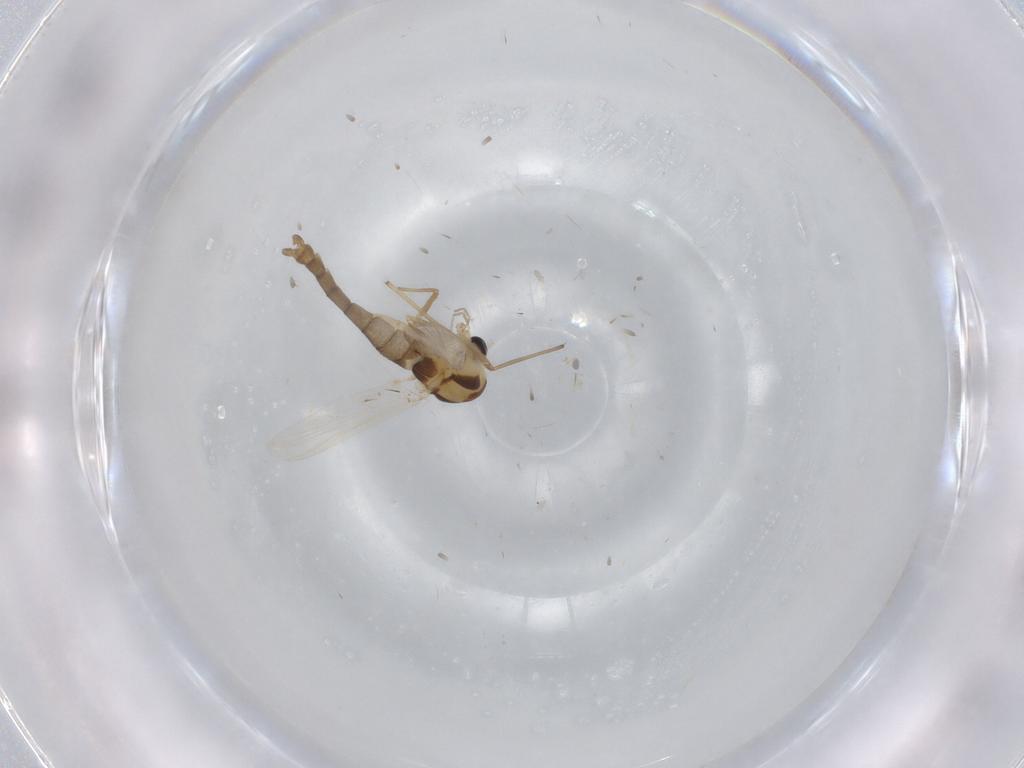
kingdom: Animalia
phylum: Arthropoda
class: Insecta
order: Diptera
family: Chironomidae
